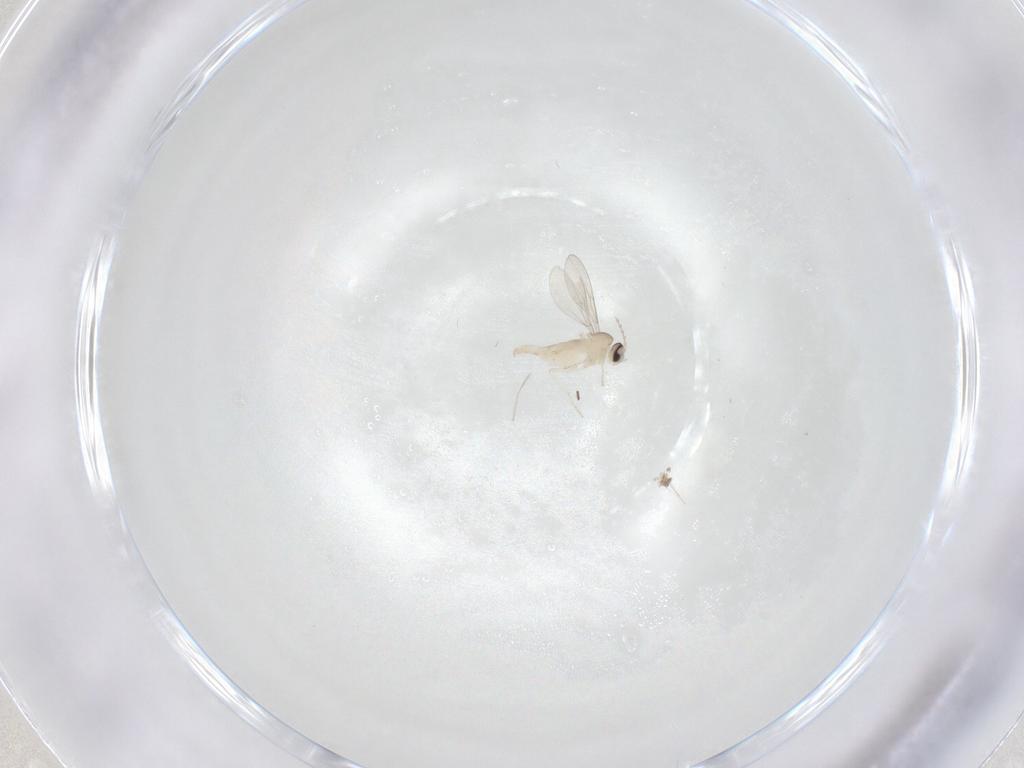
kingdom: Animalia
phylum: Arthropoda
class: Insecta
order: Diptera
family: Cecidomyiidae
